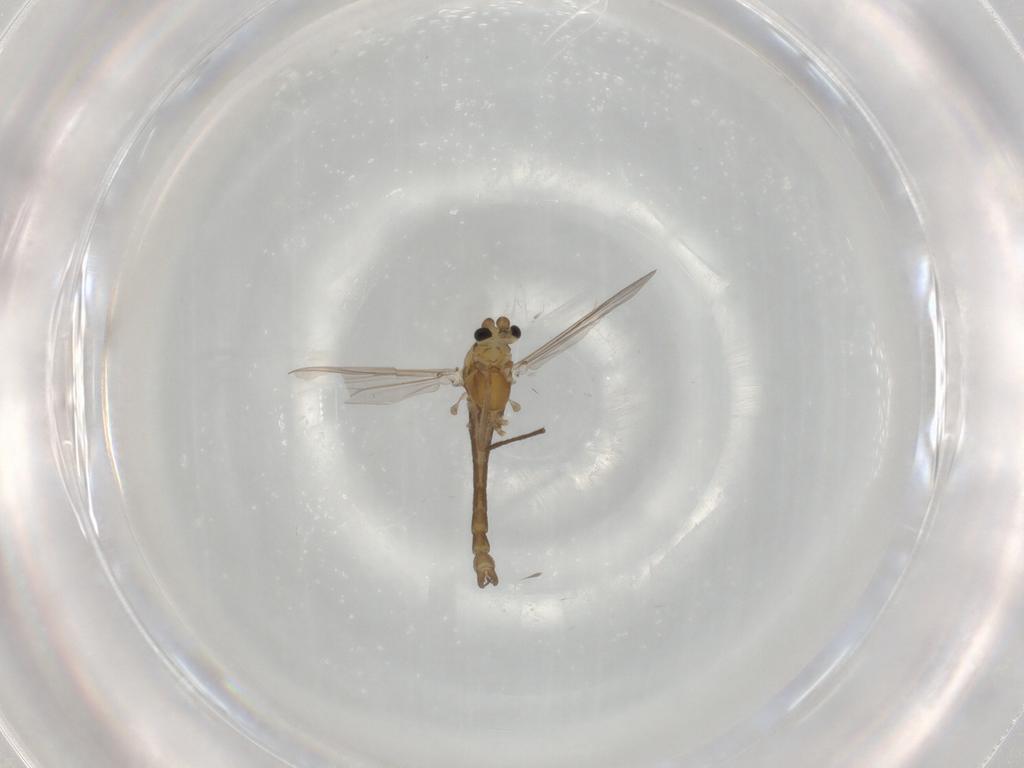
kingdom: Animalia
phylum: Arthropoda
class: Insecta
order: Diptera
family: Chironomidae
